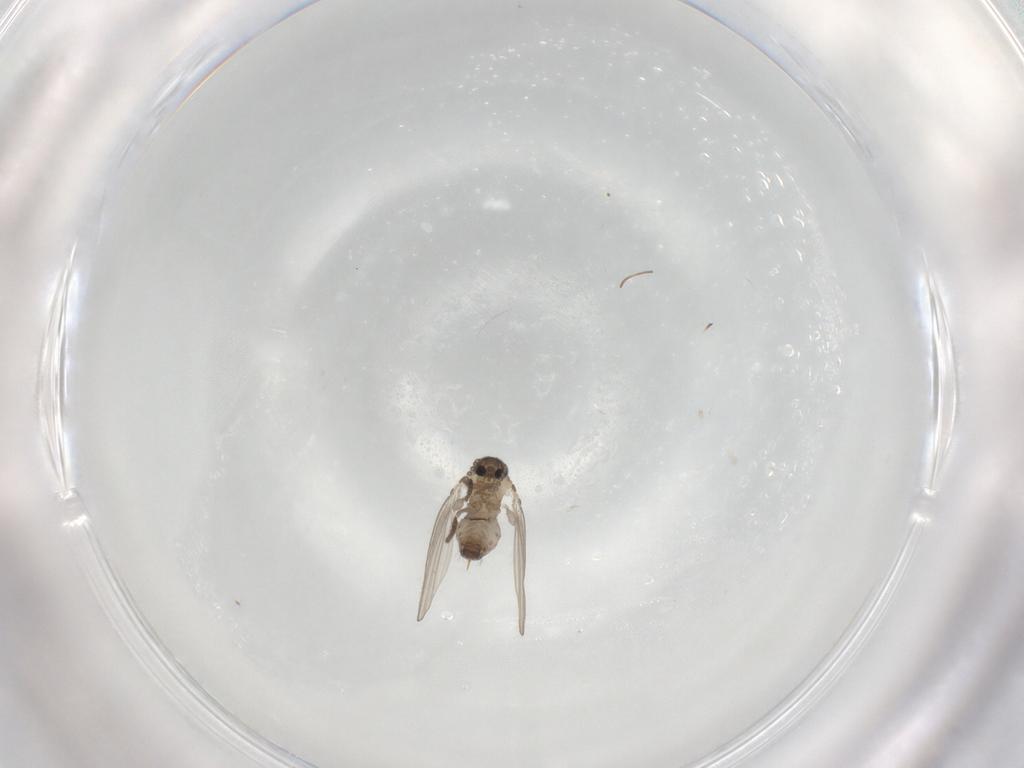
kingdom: Animalia
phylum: Arthropoda
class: Insecta
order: Diptera
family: Psychodidae
